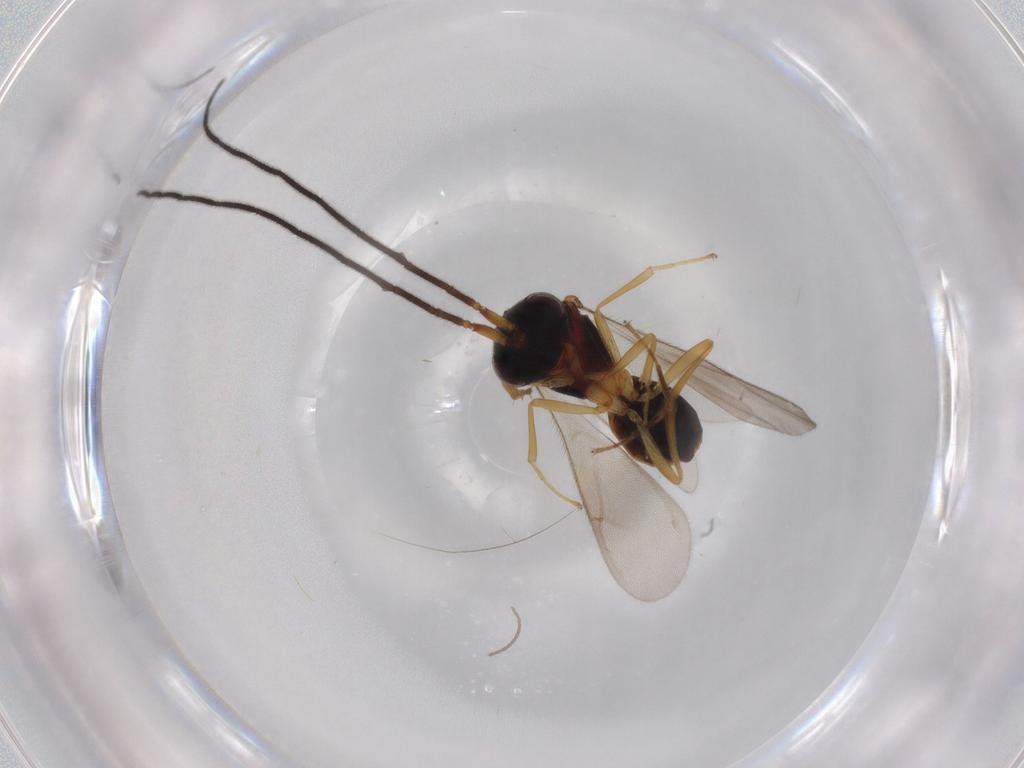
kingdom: Animalia
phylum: Arthropoda
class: Insecta
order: Hymenoptera
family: Scelionidae
